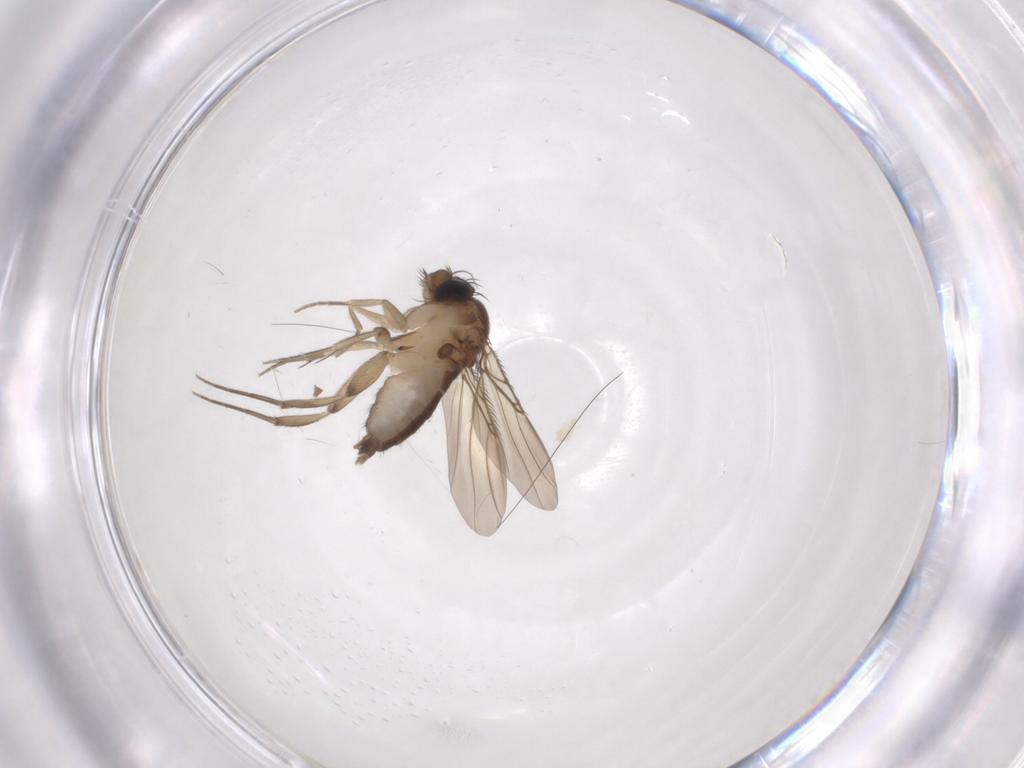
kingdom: Animalia
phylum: Arthropoda
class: Insecta
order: Diptera
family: Phoridae
